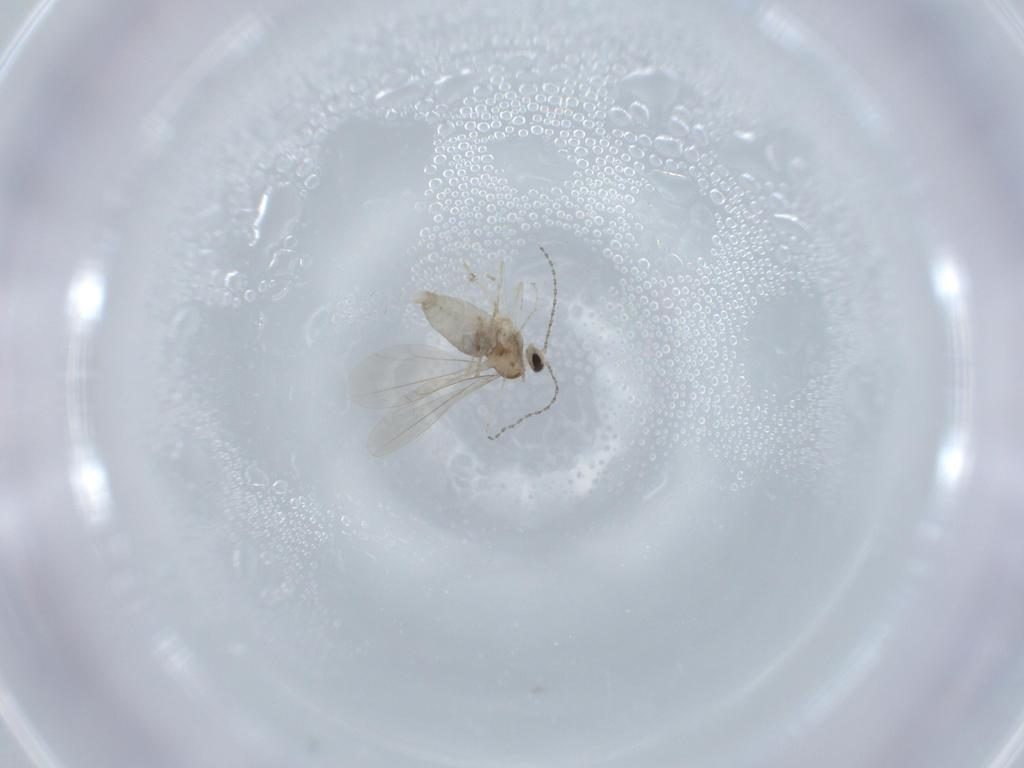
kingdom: Animalia
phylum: Arthropoda
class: Insecta
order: Diptera
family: Cecidomyiidae
